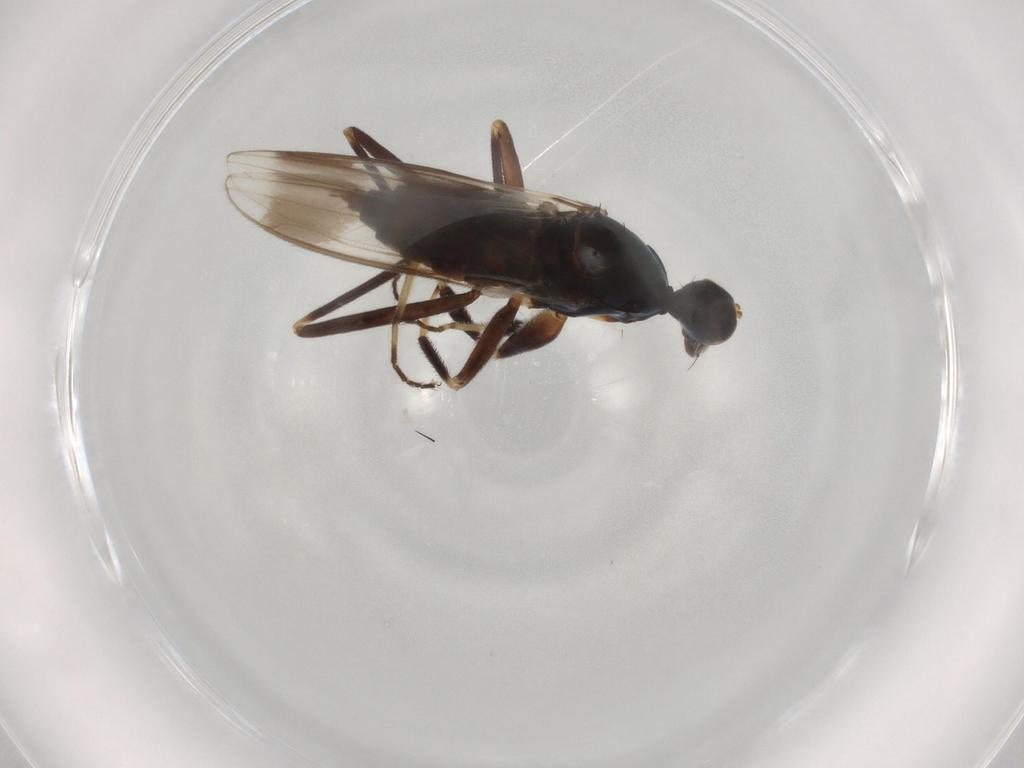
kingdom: Animalia
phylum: Arthropoda
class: Insecta
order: Diptera
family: Hybotidae
